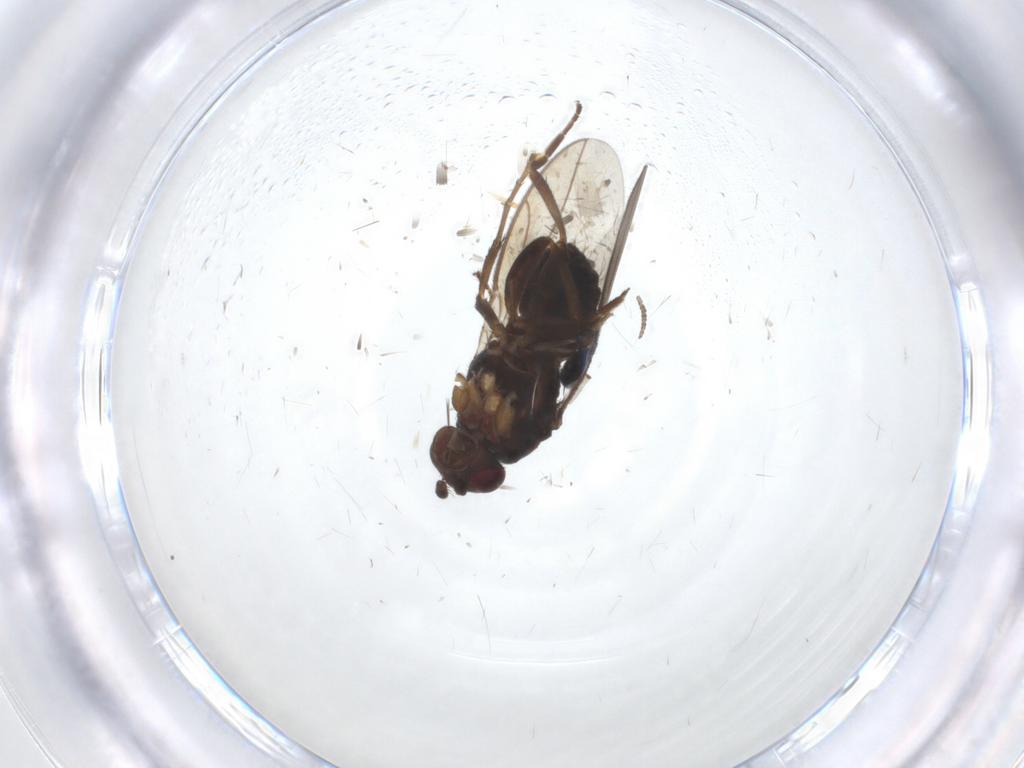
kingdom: Animalia
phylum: Arthropoda
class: Insecta
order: Diptera
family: Sphaeroceridae
